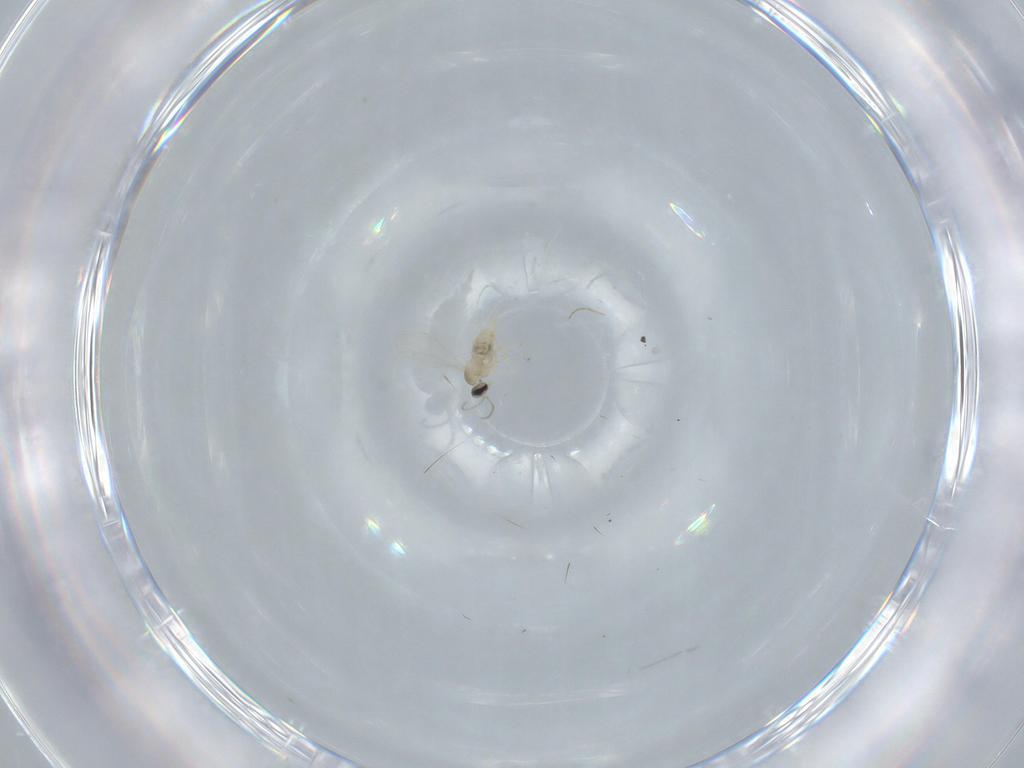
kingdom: Animalia
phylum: Arthropoda
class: Insecta
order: Diptera
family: Cecidomyiidae
